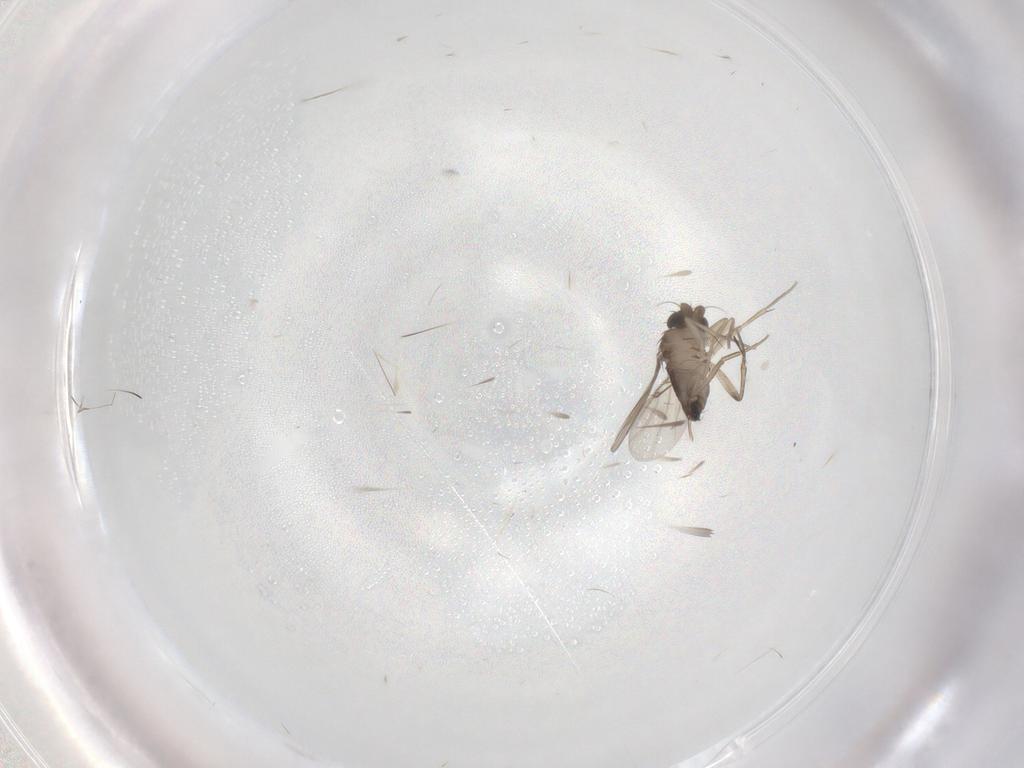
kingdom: Animalia
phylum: Arthropoda
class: Insecta
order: Diptera
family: Phoridae
